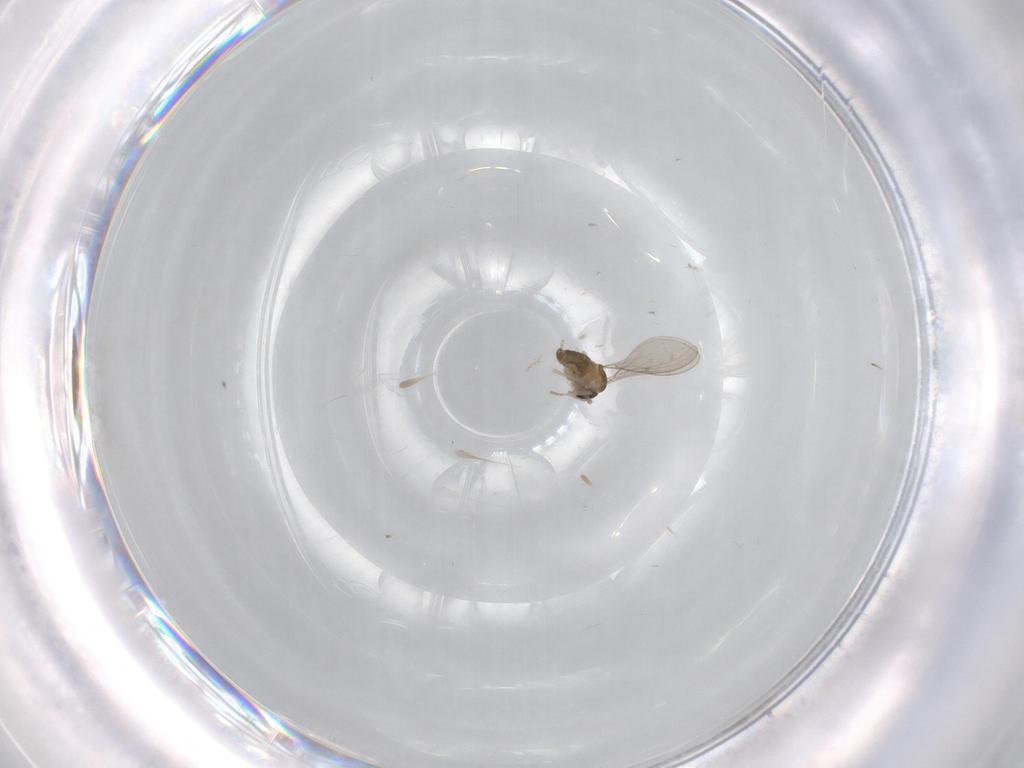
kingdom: Animalia
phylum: Arthropoda
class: Insecta
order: Diptera
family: Cecidomyiidae
